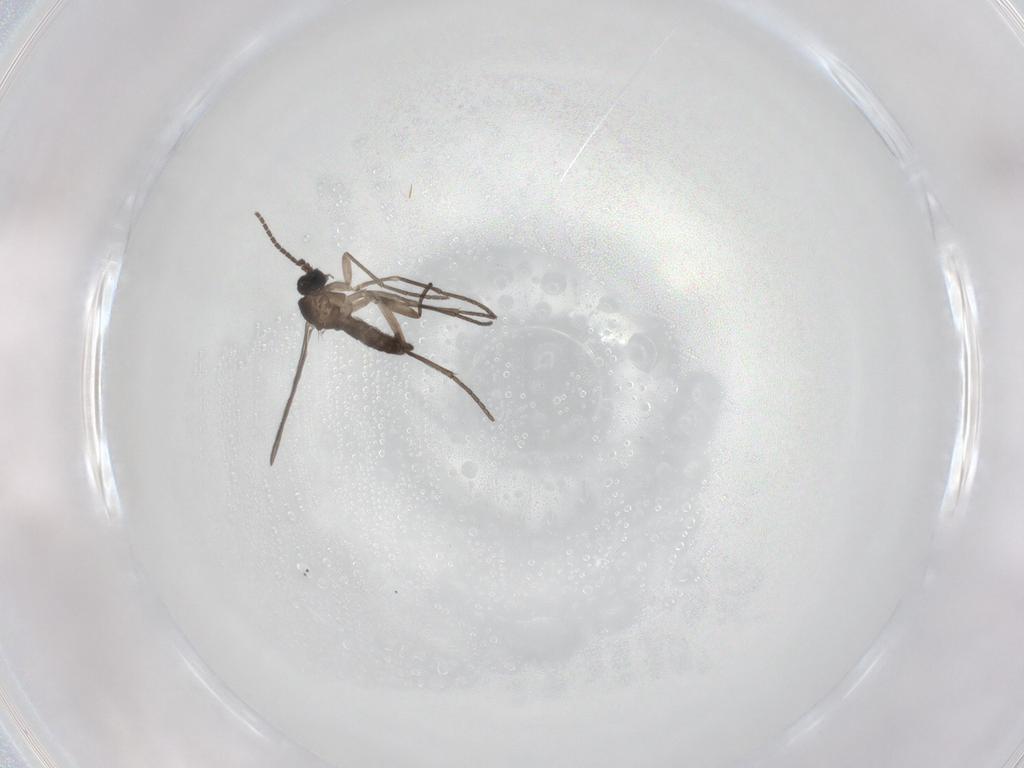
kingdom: Animalia
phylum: Arthropoda
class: Insecta
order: Diptera
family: Sciaridae
